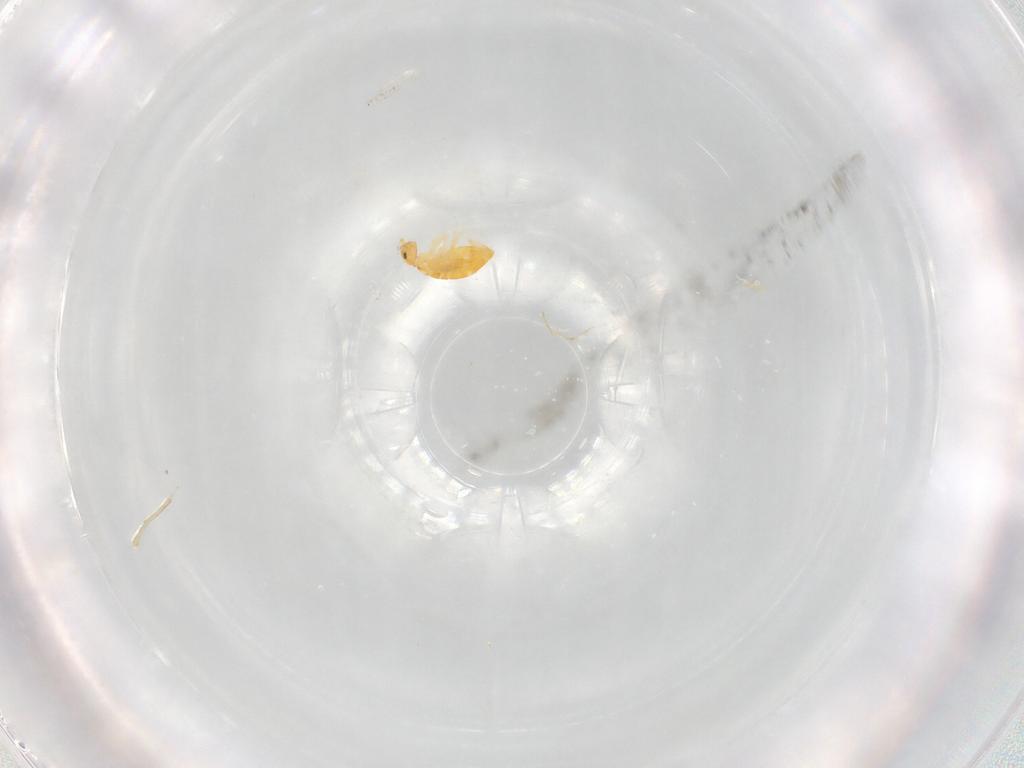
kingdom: Animalia
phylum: Arthropoda
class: Collembola
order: Entomobryomorpha
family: Entomobryidae
